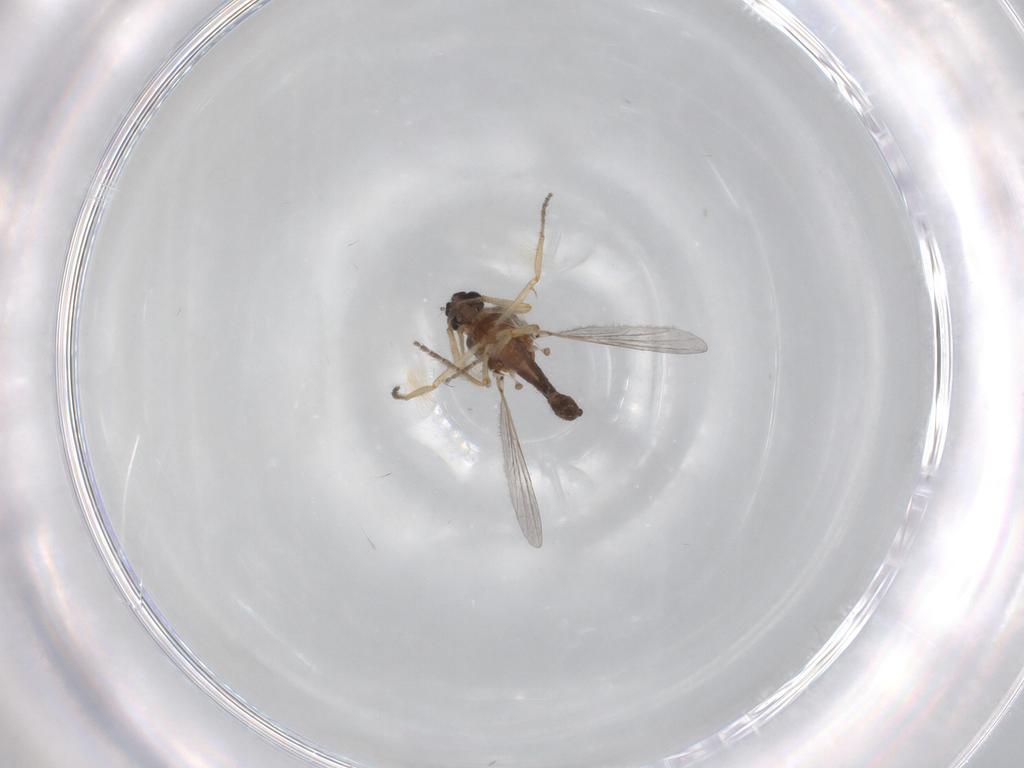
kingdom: Animalia
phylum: Arthropoda
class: Insecta
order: Diptera
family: Ceratopogonidae
